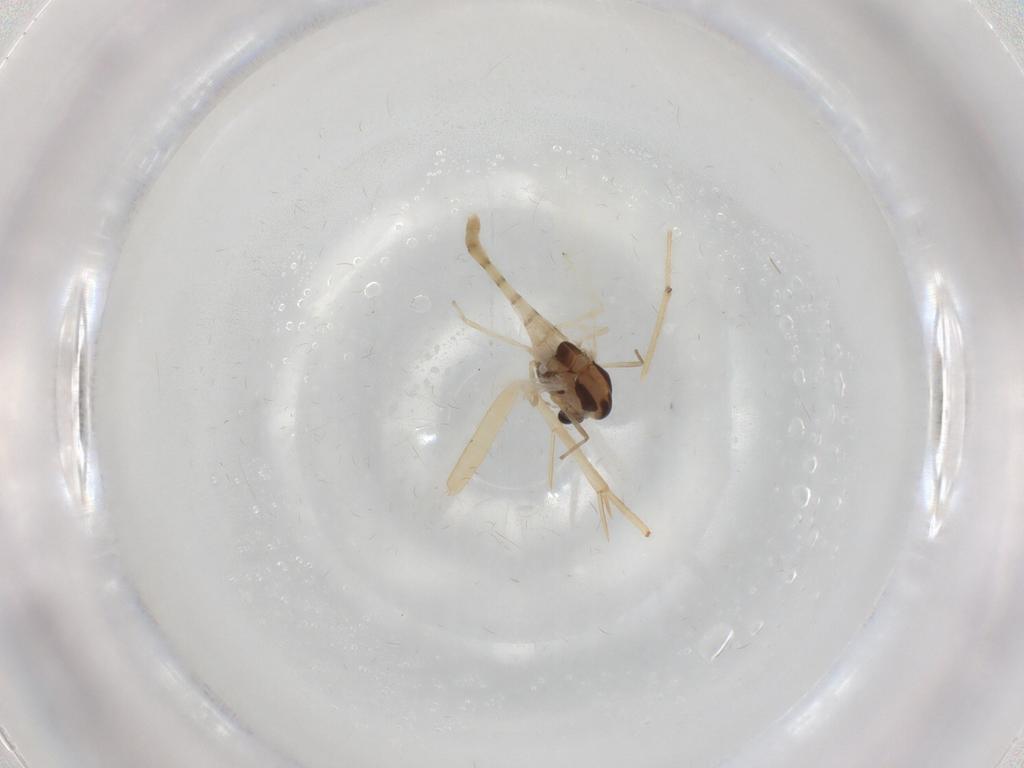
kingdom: Animalia
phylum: Arthropoda
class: Insecta
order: Diptera
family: Chironomidae
